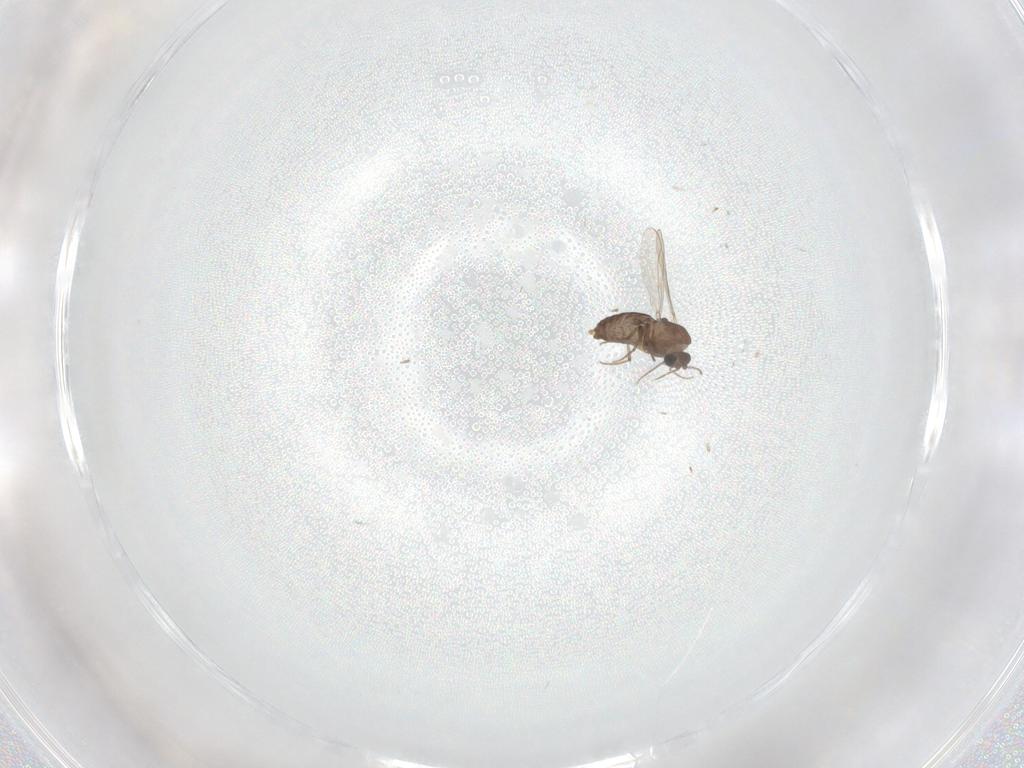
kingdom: Animalia
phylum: Arthropoda
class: Insecta
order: Diptera
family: Chironomidae
